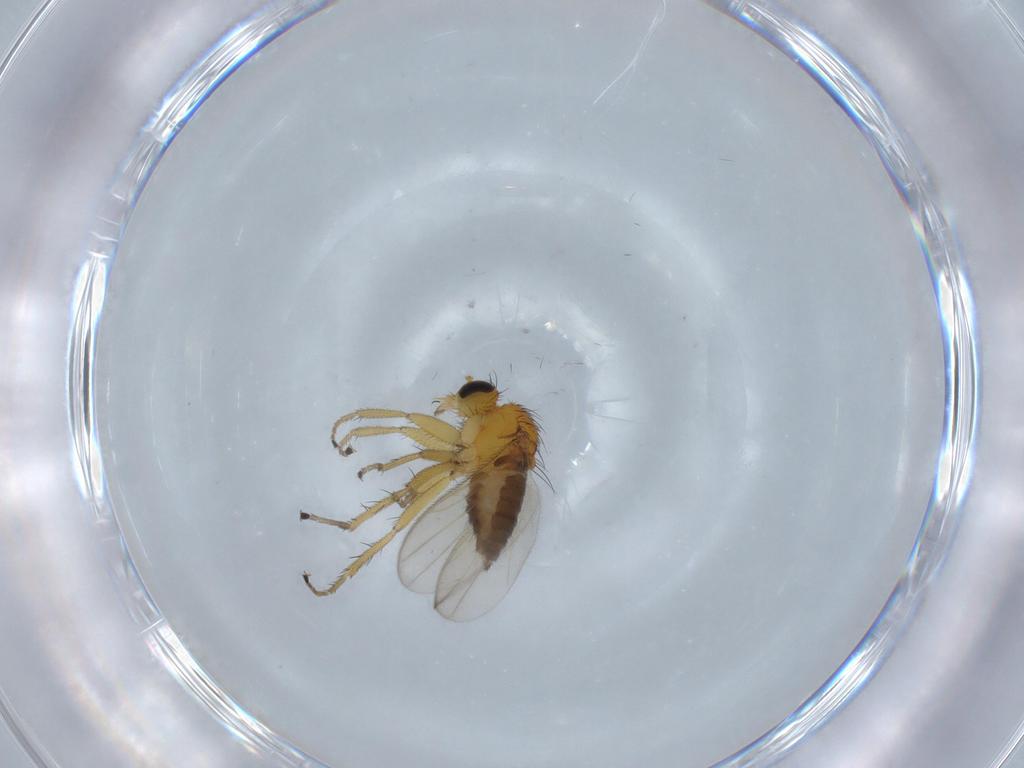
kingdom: Animalia
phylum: Arthropoda
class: Insecta
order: Diptera
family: Hybotidae
